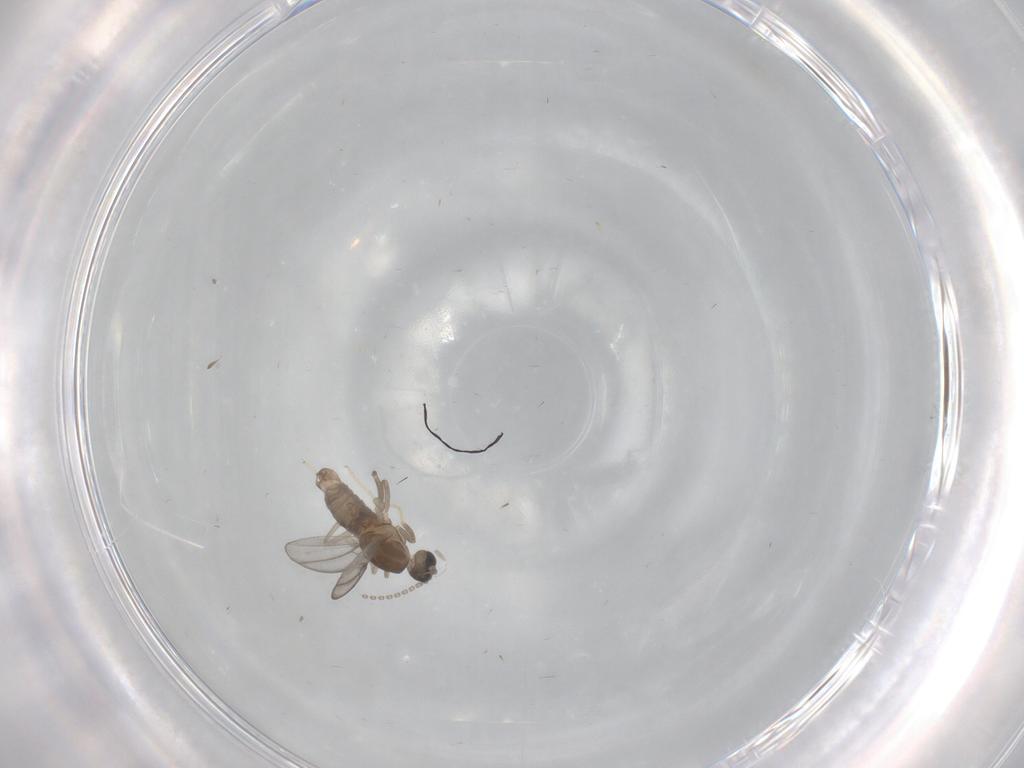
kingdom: Animalia
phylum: Arthropoda
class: Insecta
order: Diptera
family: Cecidomyiidae
